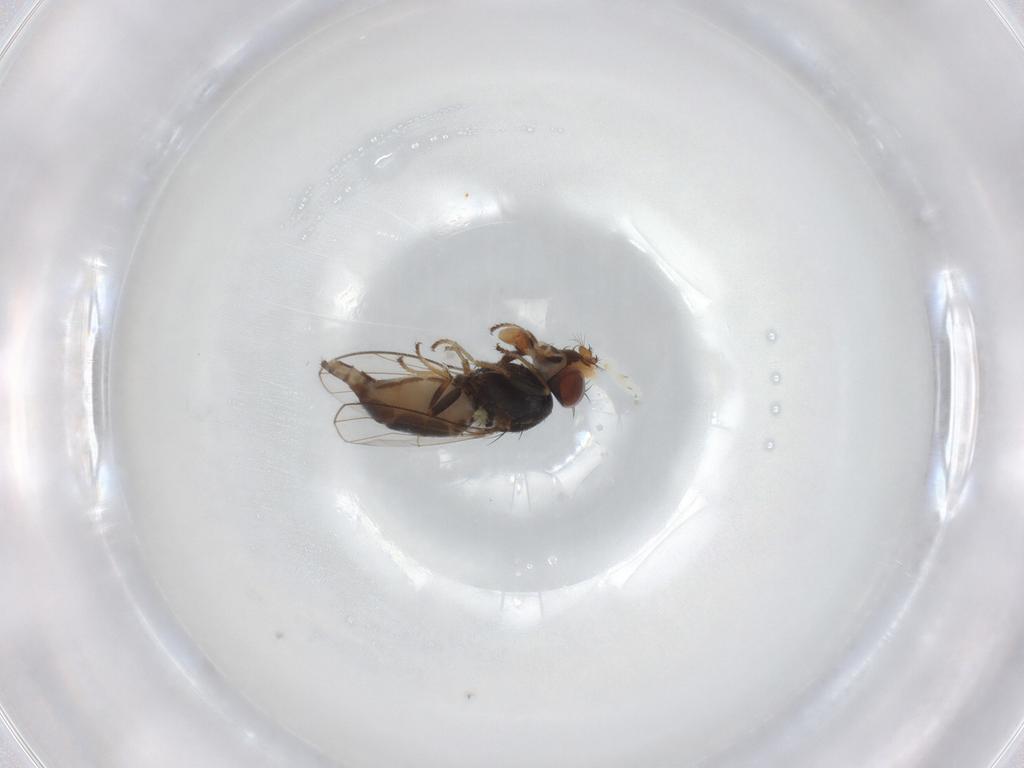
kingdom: Animalia
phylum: Arthropoda
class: Insecta
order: Diptera
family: Ephydridae
